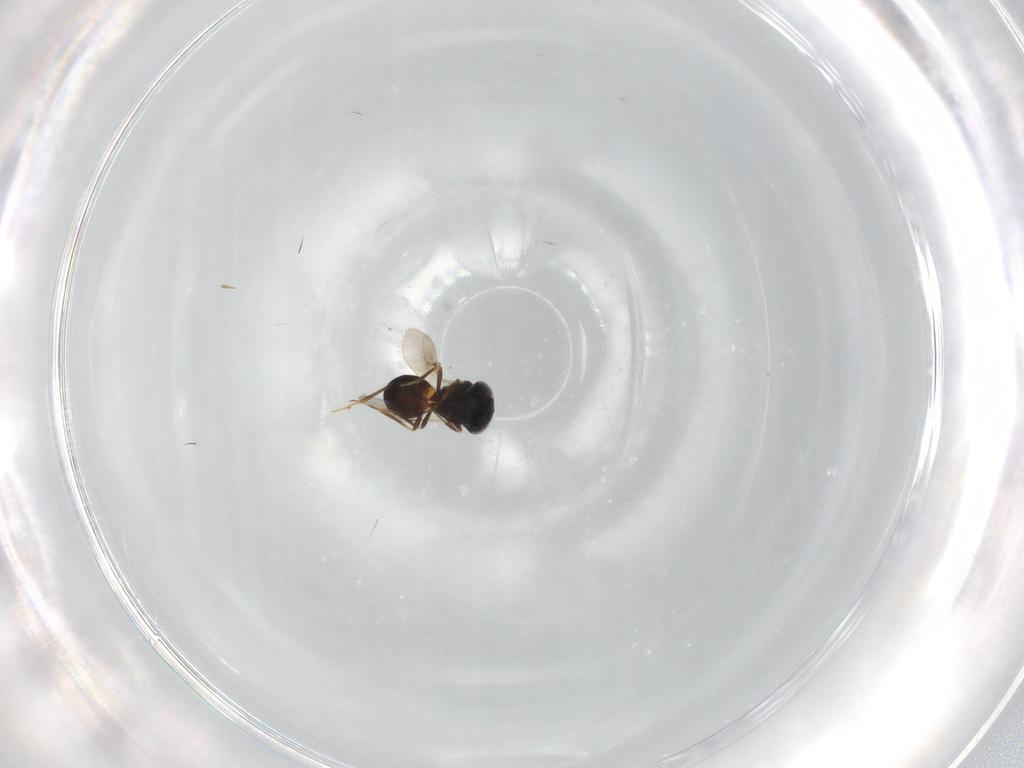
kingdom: Animalia
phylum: Arthropoda
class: Insecta
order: Hymenoptera
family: Scelionidae
